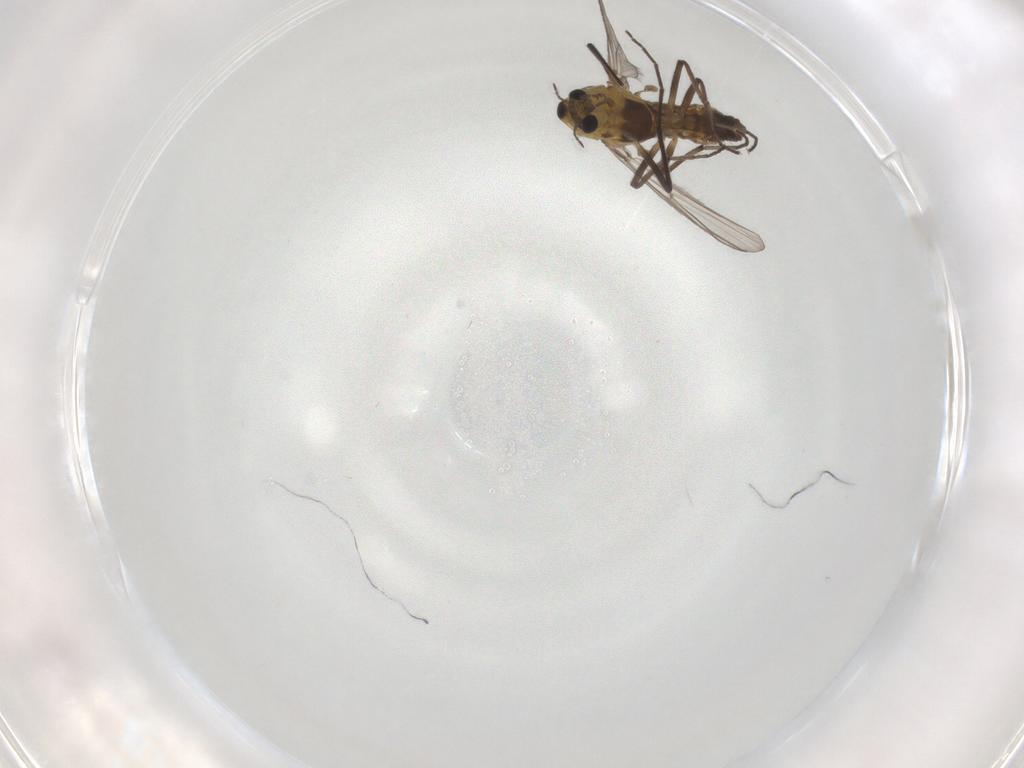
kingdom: Animalia
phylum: Arthropoda
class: Insecta
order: Diptera
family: Chironomidae
